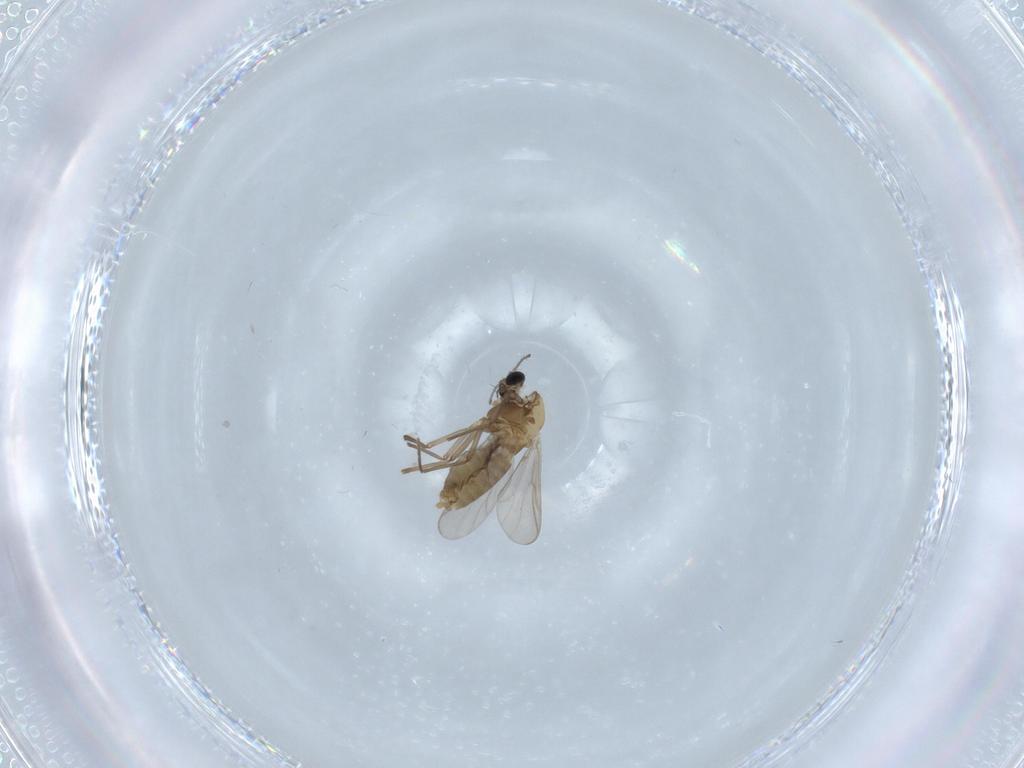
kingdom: Animalia
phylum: Arthropoda
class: Insecta
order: Diptera
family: Chironomidae
